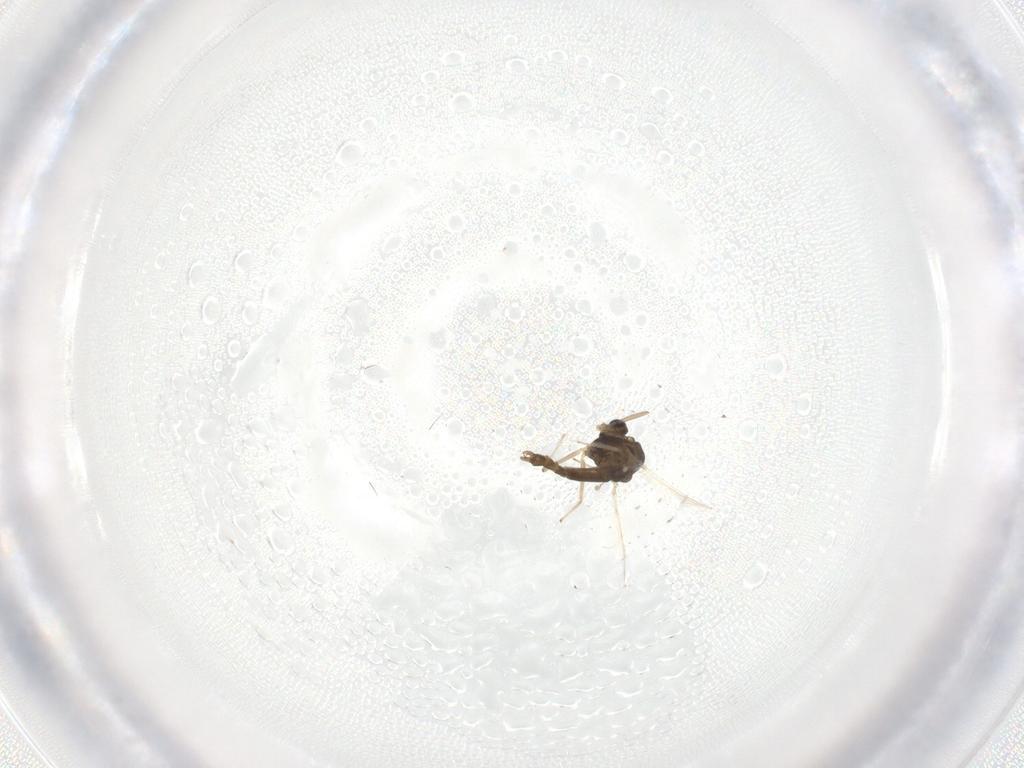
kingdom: Animalia
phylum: Arthropoda
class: Insecta
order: Diptera
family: Chironomidae
